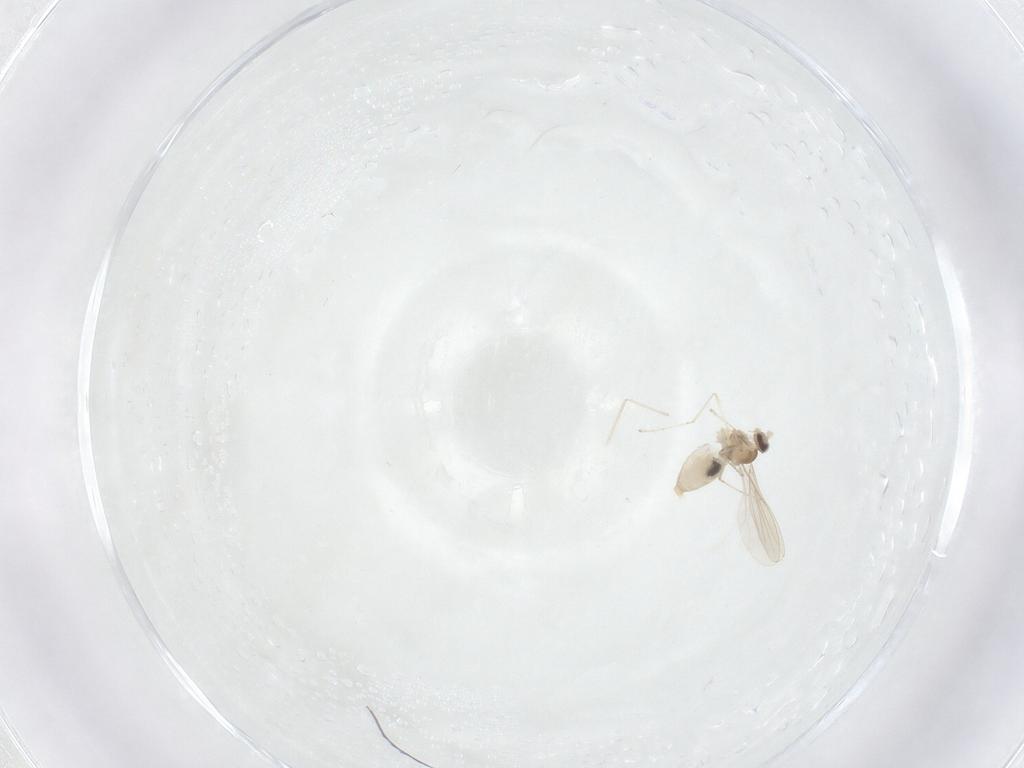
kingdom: Animalia
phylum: Arthropoda
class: Insecta
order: Diptera
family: Cecidomyiidae
